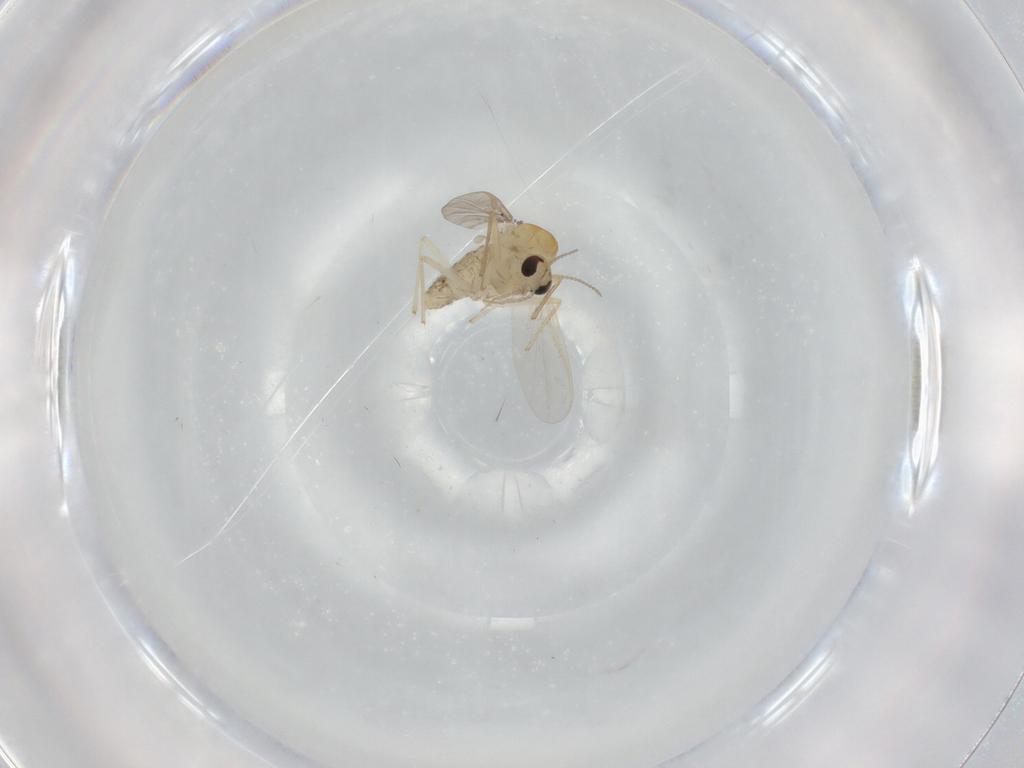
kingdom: Animalia
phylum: Arthropoda
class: Insecta
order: Diptera
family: Chironomidae
